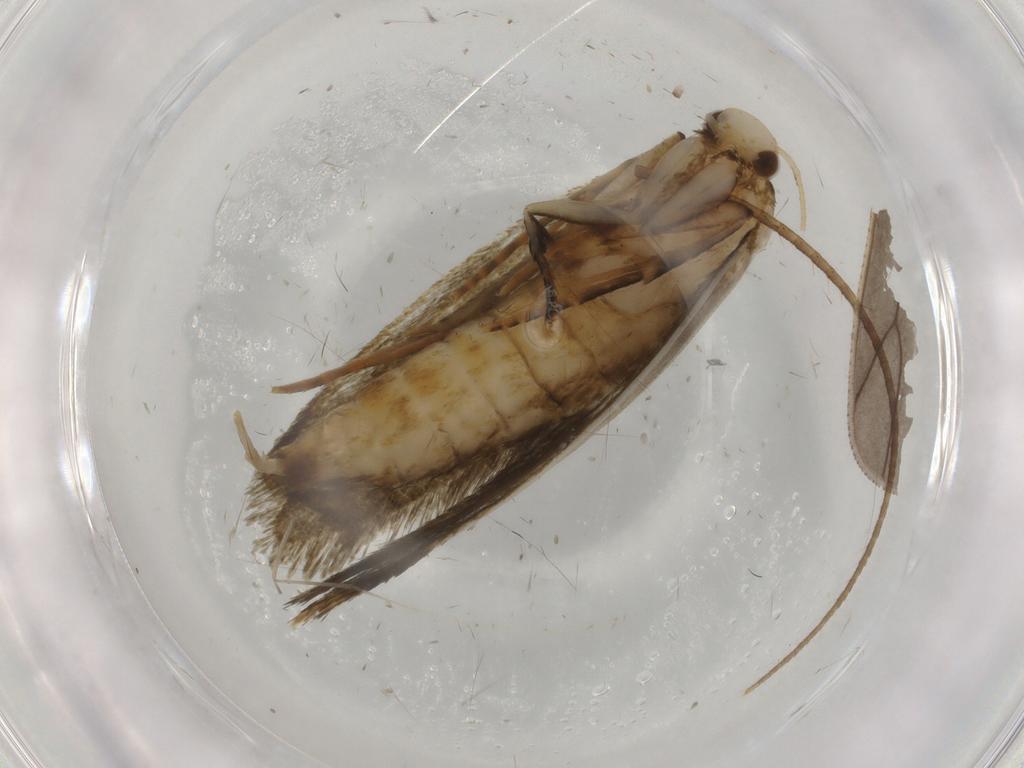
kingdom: Animalia
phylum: Arthropoda
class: Insecta
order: Lepidoptera
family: Pieridae
